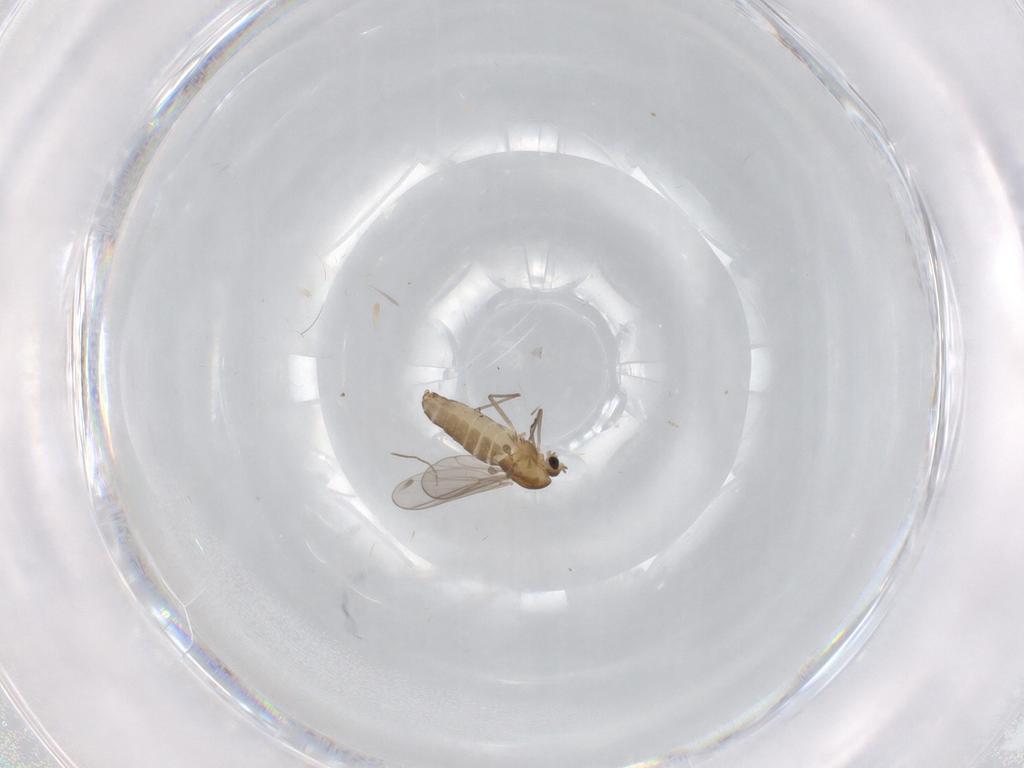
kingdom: Animalia
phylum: Arthropoda
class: Insecta
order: Diptera
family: Chironomidae
